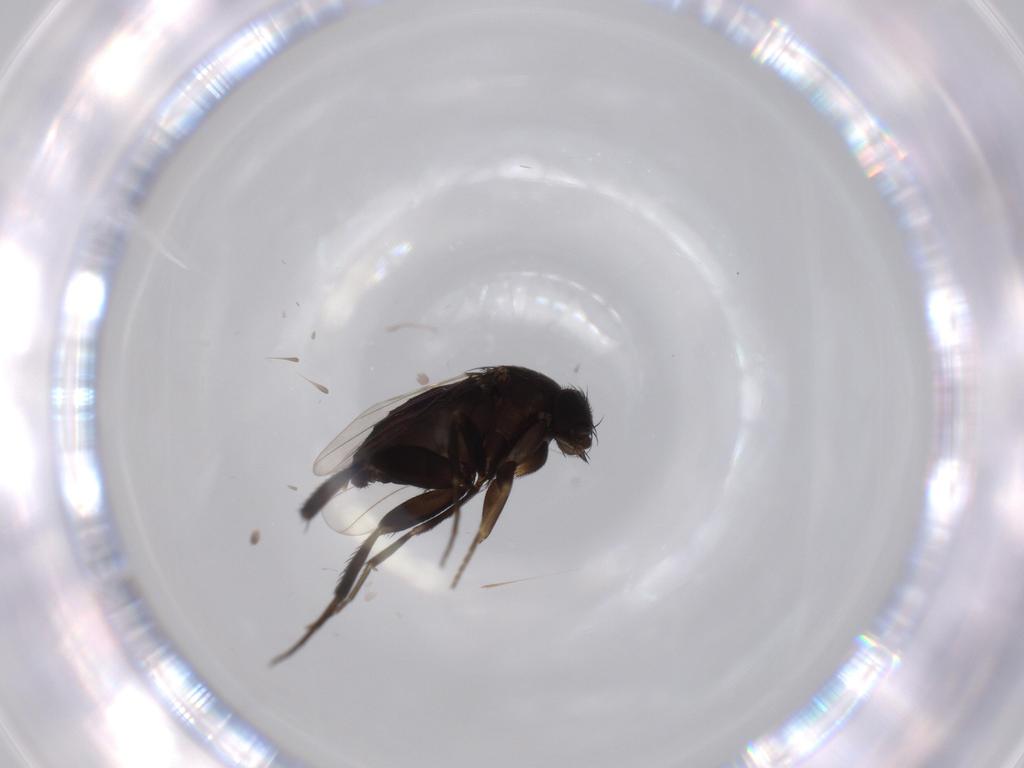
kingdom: Animalia
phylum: Arthropoda
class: Insecta
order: Diptera
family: Phoridae
